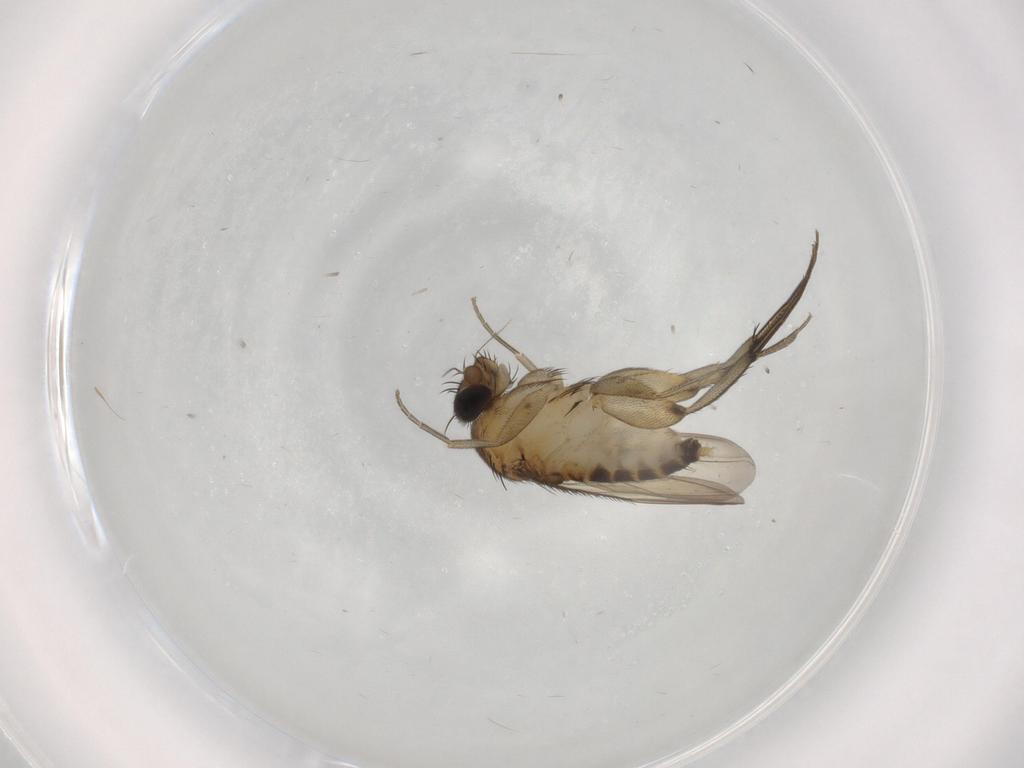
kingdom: Animalia
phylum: Arthropoda
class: Insecta
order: Diptera
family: Phoridae
